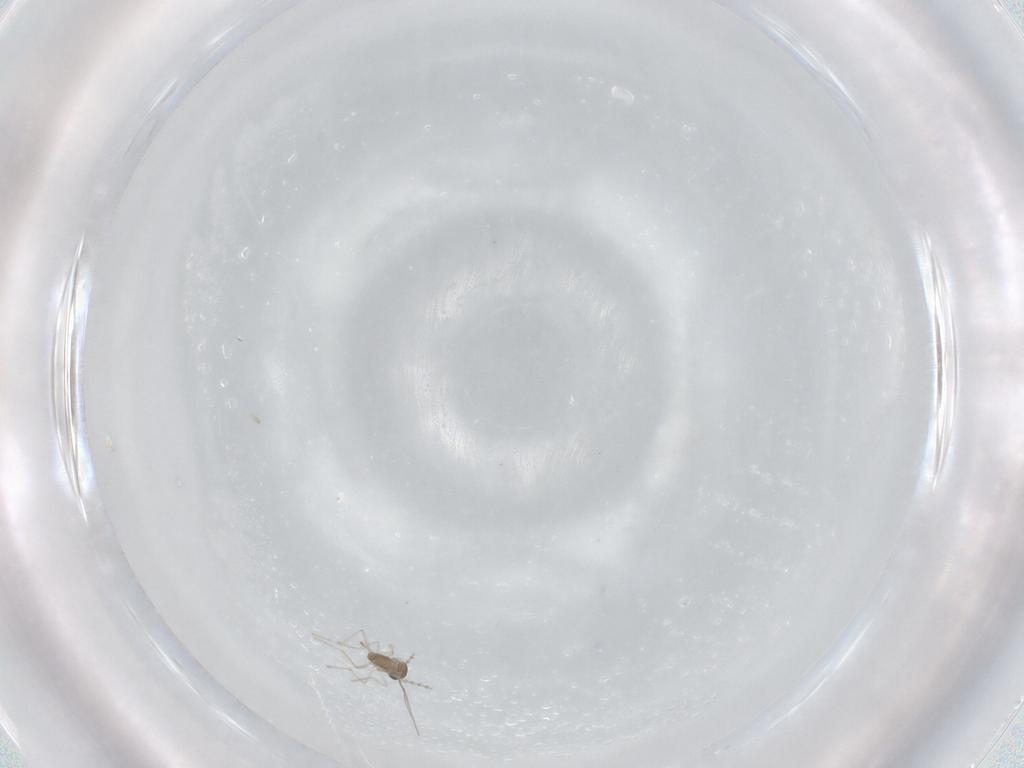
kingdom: Animalia
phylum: Arthropoda
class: Insecta
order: Diptera
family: Cecidomyiidae
